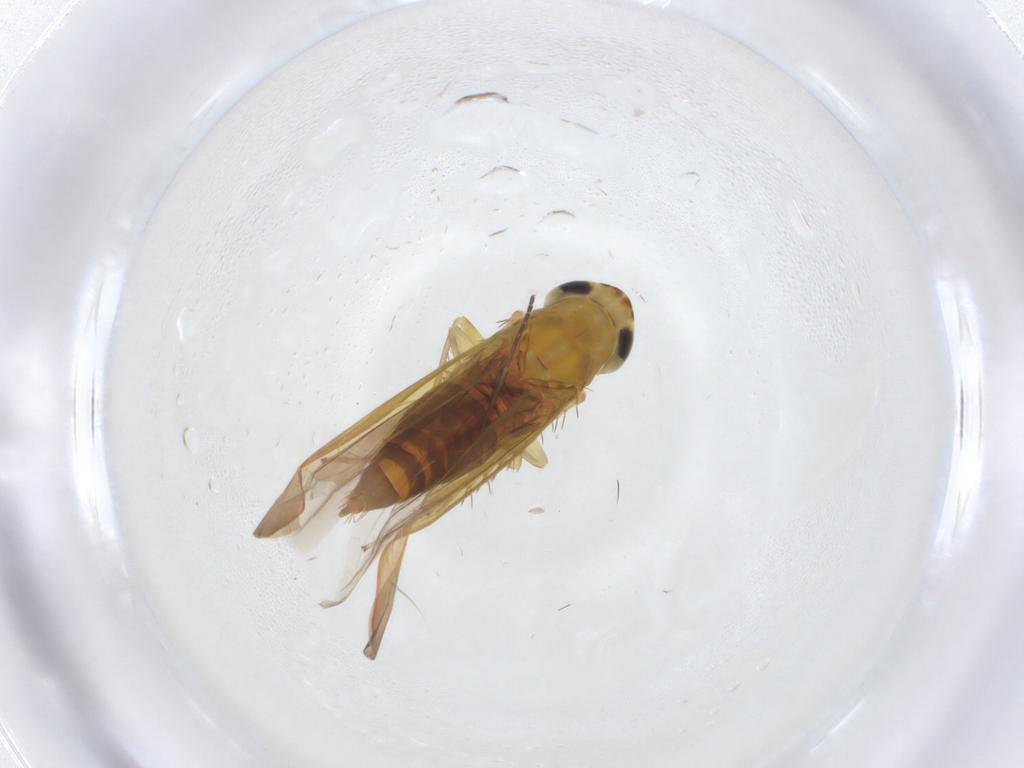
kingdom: Animalia
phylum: Arthropoda
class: Insecta
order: Hemiptera
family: Cicadellidae
